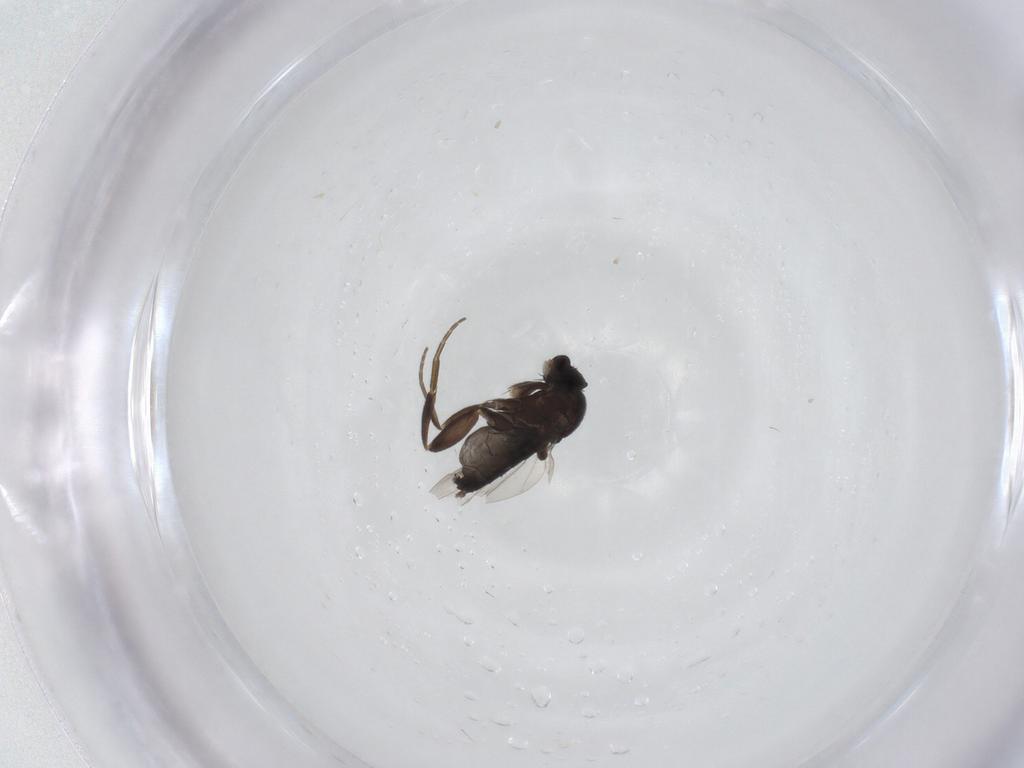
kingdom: Animalia
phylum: Arthropoda
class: Insecta
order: Diptera
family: Phoridae
